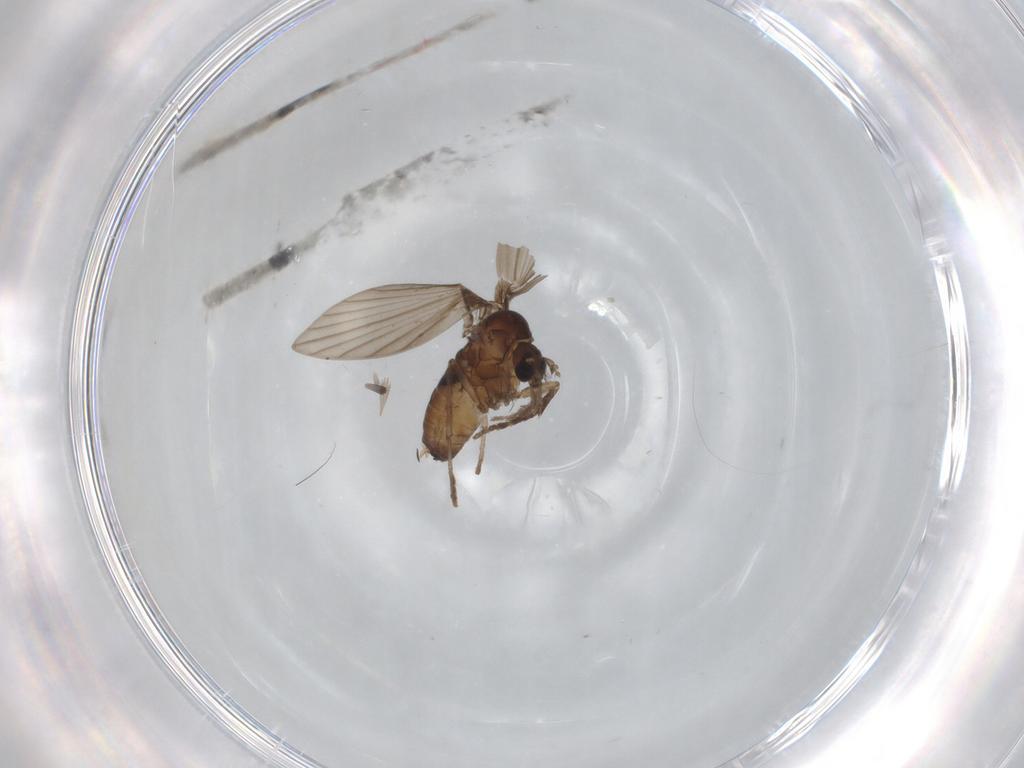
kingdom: Animalia
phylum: Arthropoda
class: Insecta
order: Diptera
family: Psychodidae
